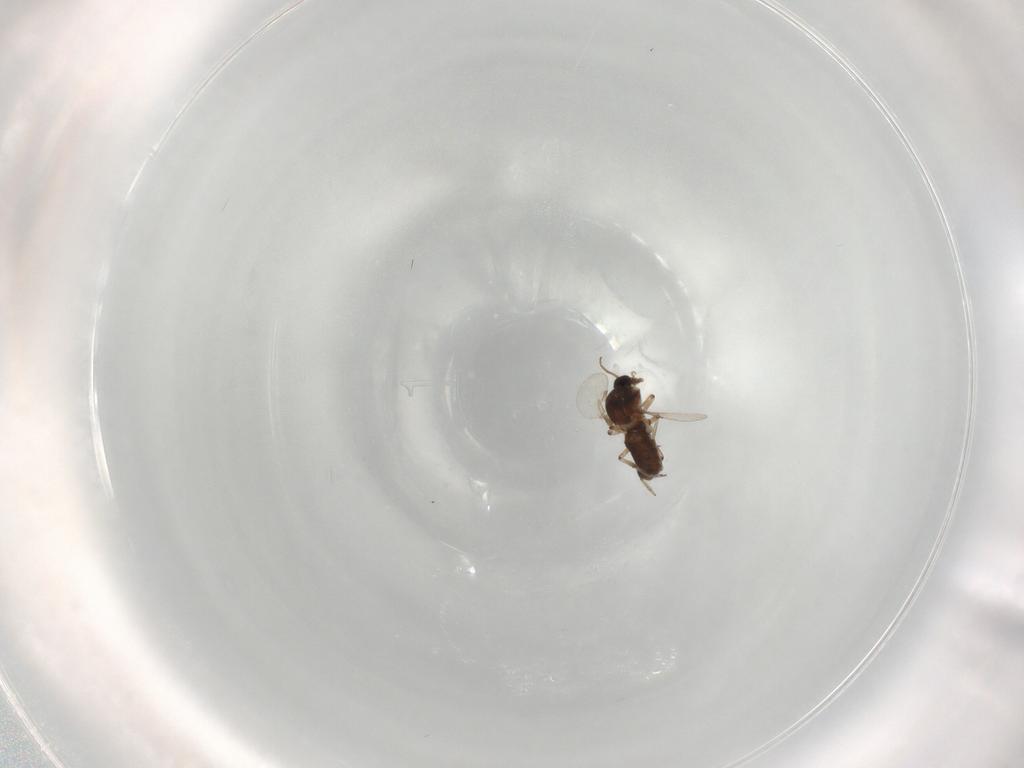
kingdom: Animalia
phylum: Arthropoda
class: Insecta
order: Diptera
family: Ceratopogonidae
